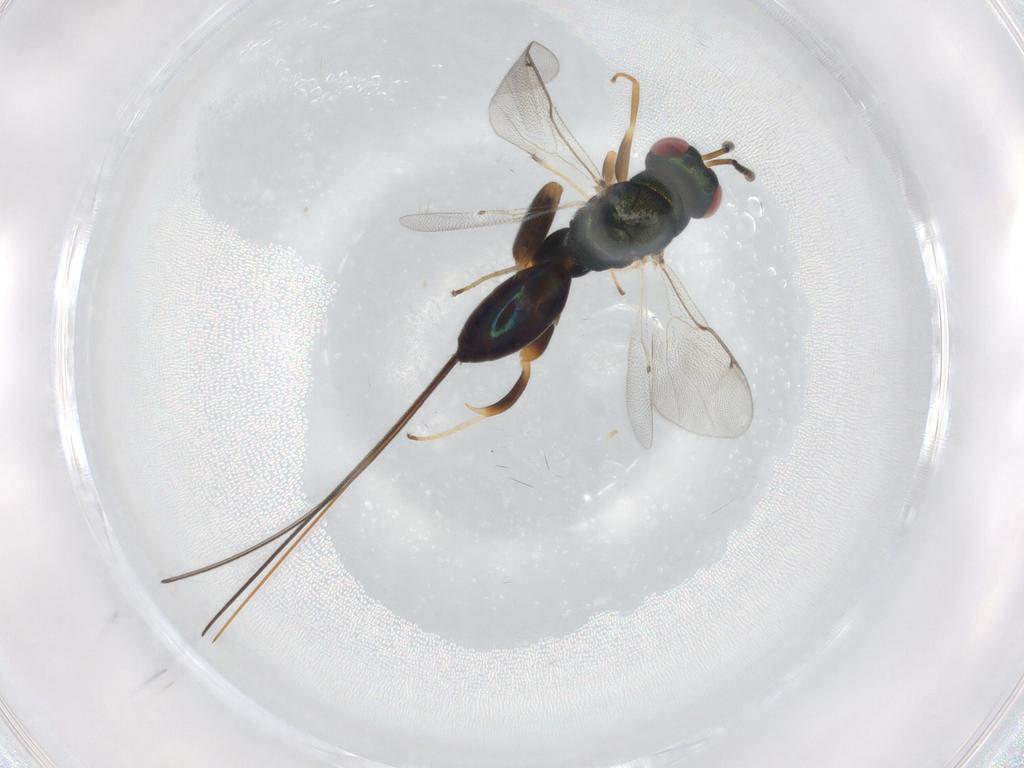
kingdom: Animalia
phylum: Arthropoda
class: Insecta
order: Hymenoptera
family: Torymidae
